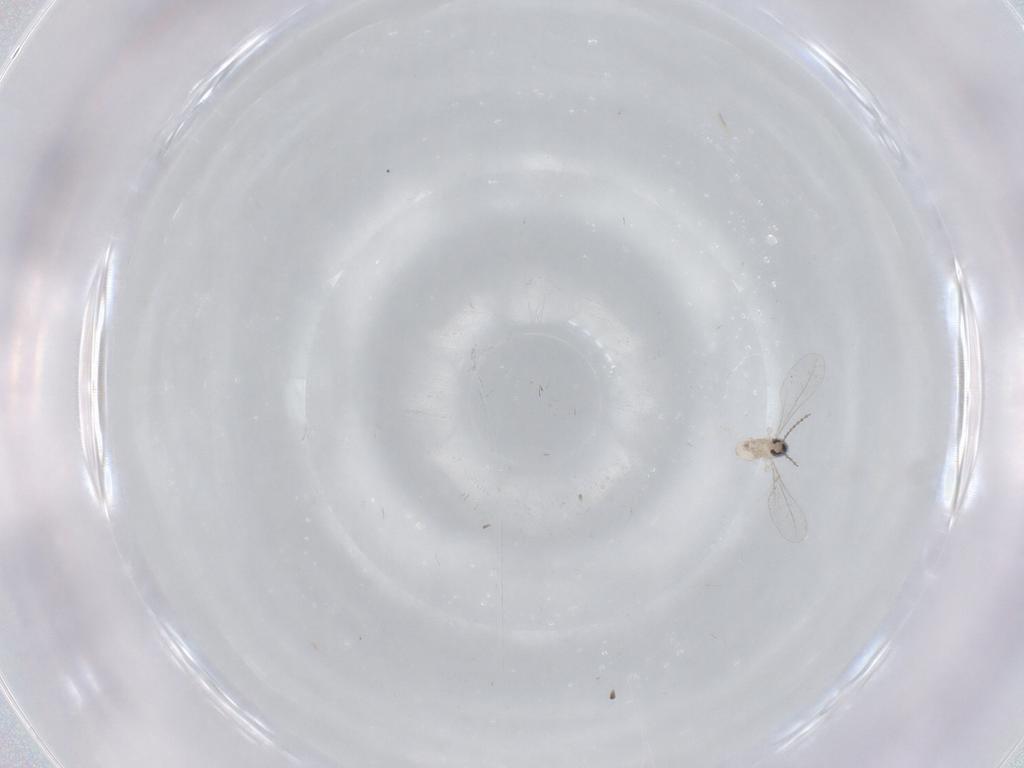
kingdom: Animalia
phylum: Arthropoda
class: Insecta
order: Diptera
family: Cecidomyiidae
